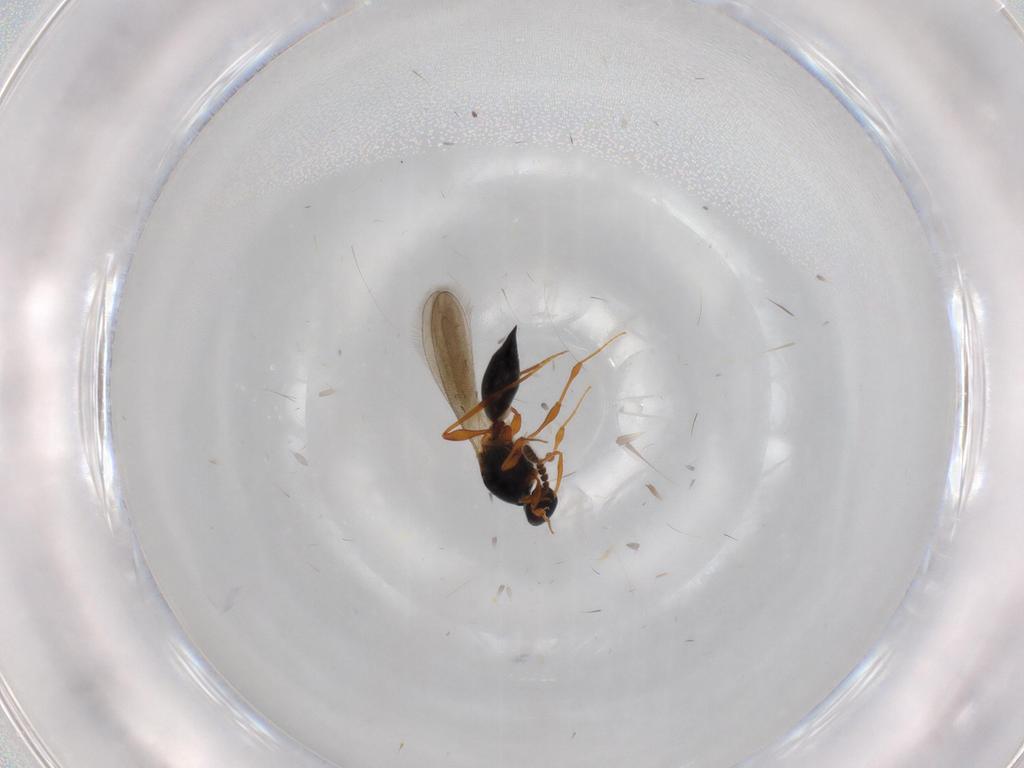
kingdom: Animalia
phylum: Arthropoda
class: Insecta
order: Hymenoptera
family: Platygastridae
